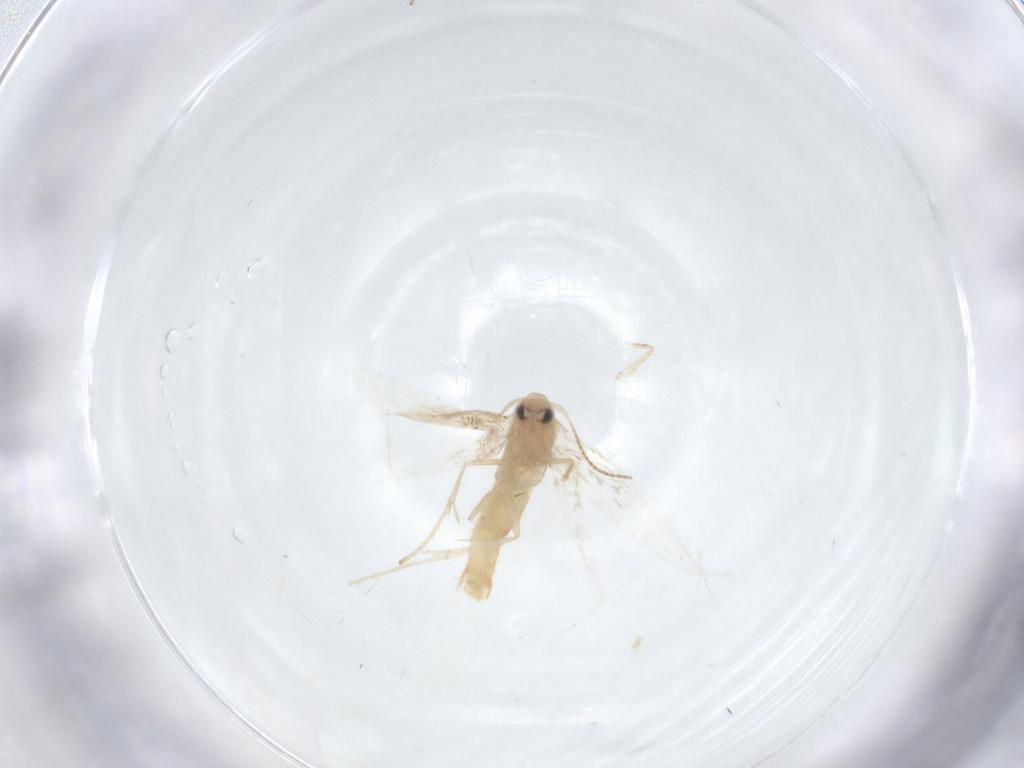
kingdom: Animalia
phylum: Arthropoda
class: Insecta
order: Lepidoptera
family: Gracillariidae
